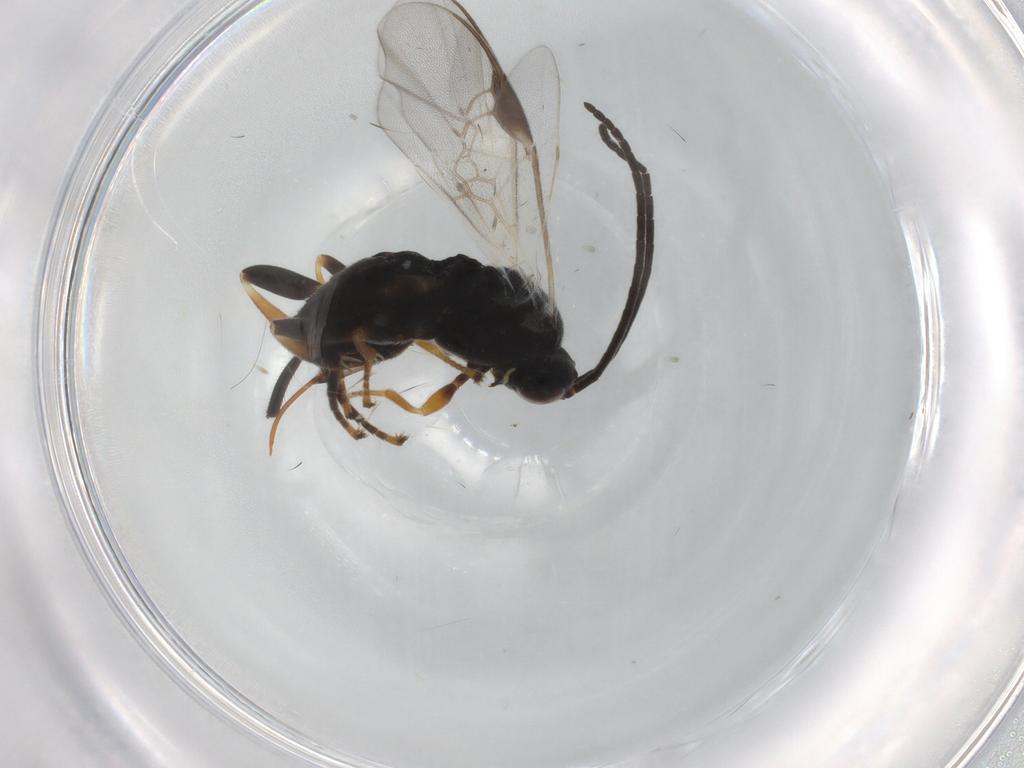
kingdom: Animalia
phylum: Arthropoda
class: Insecta
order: Hymenoptera
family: Braconidae
